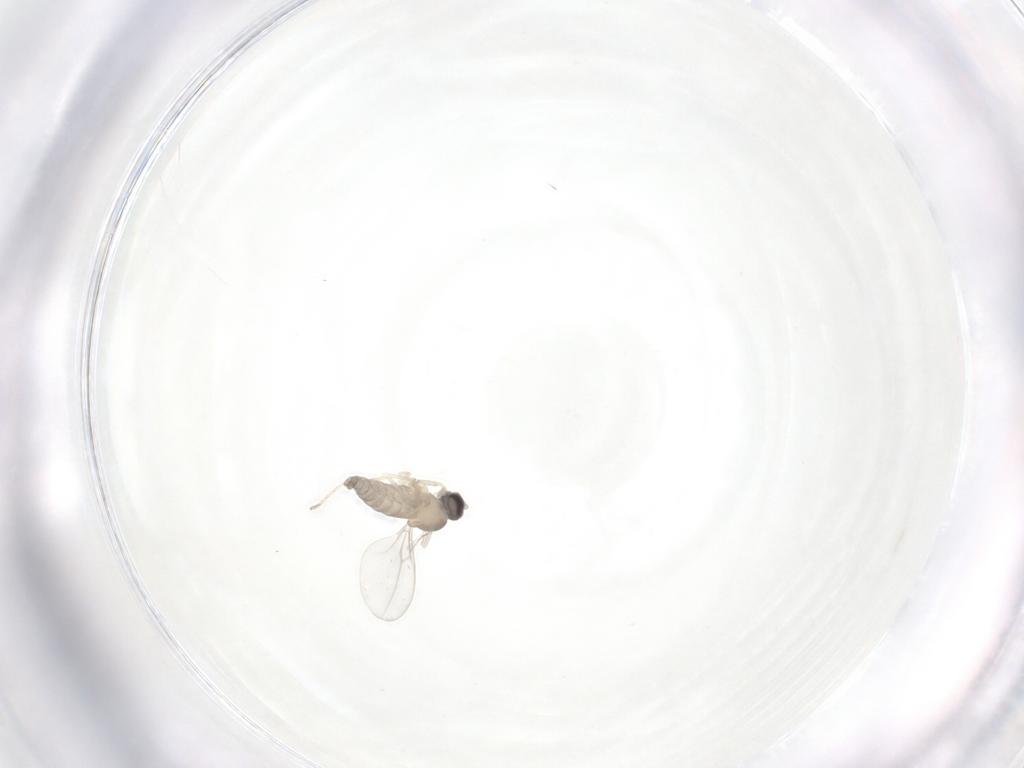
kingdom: Animalia
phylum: Arthropoda
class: Insecta
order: Diptera
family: Cecidomyiidae
